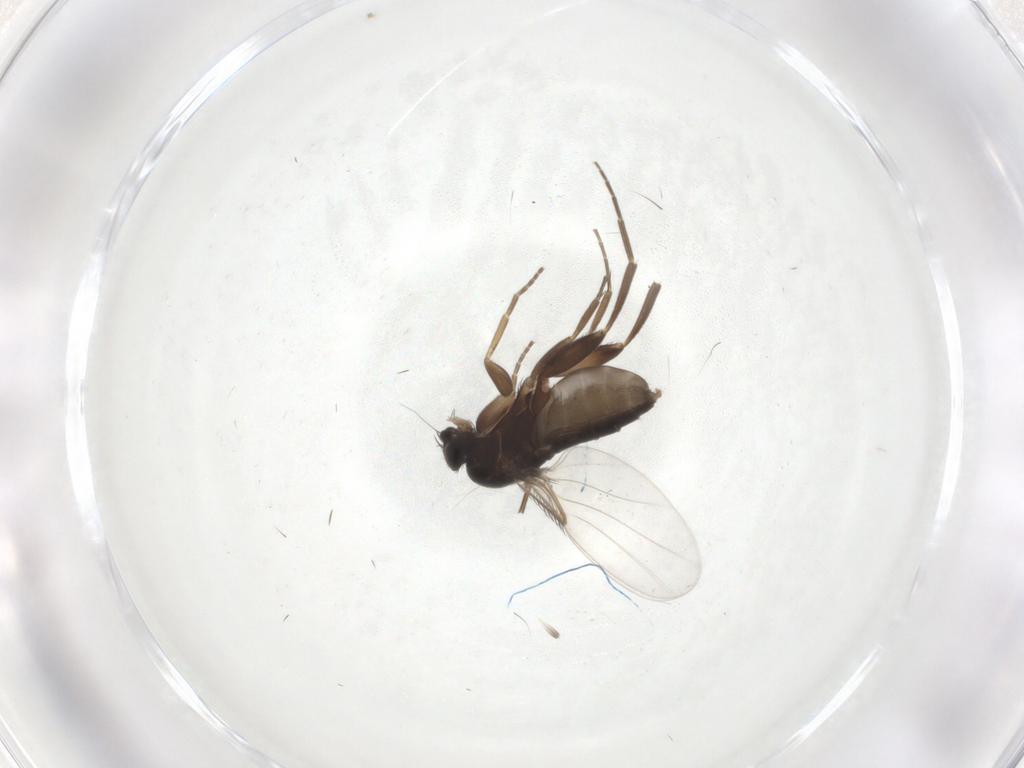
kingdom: Animalia
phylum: Arthropoda
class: Insecta
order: Diptera
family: Phoridae
